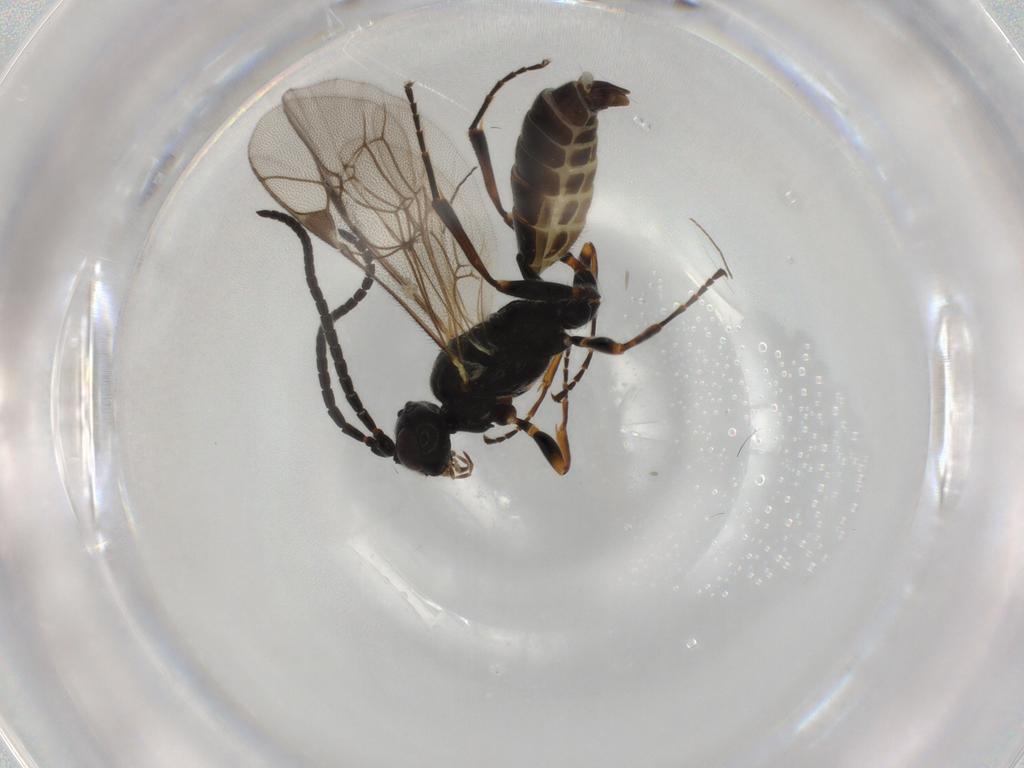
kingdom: Animalia
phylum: Arthropoda
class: Insecta
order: Hymenoptera
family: Ichneumonidae
